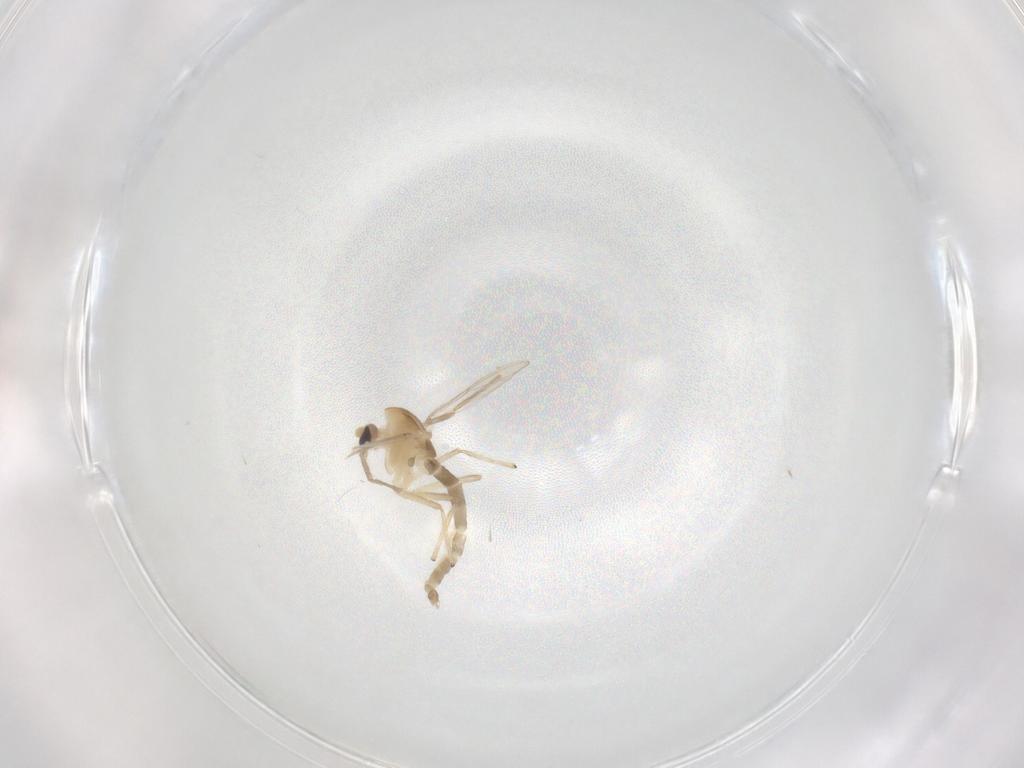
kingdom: Animalia
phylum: Arthropoda
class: Insecta
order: Diptera
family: Chironomidae
